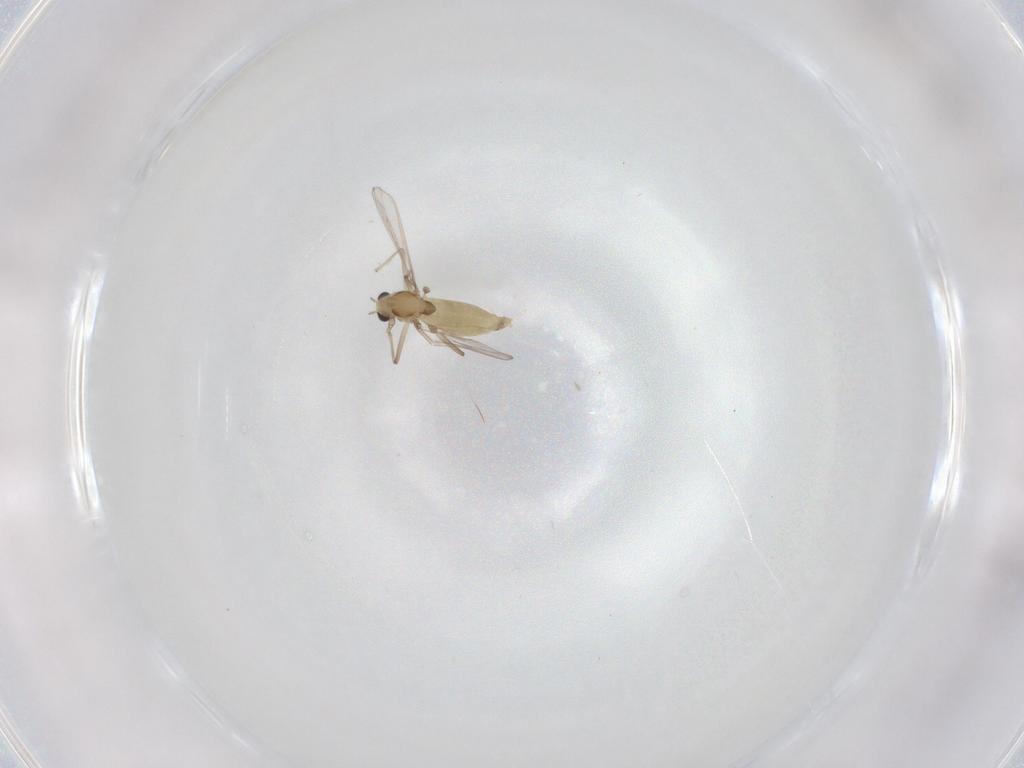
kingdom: Animalia
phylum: Arthropoda
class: Insecta
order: Diptera
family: Chironomidae
